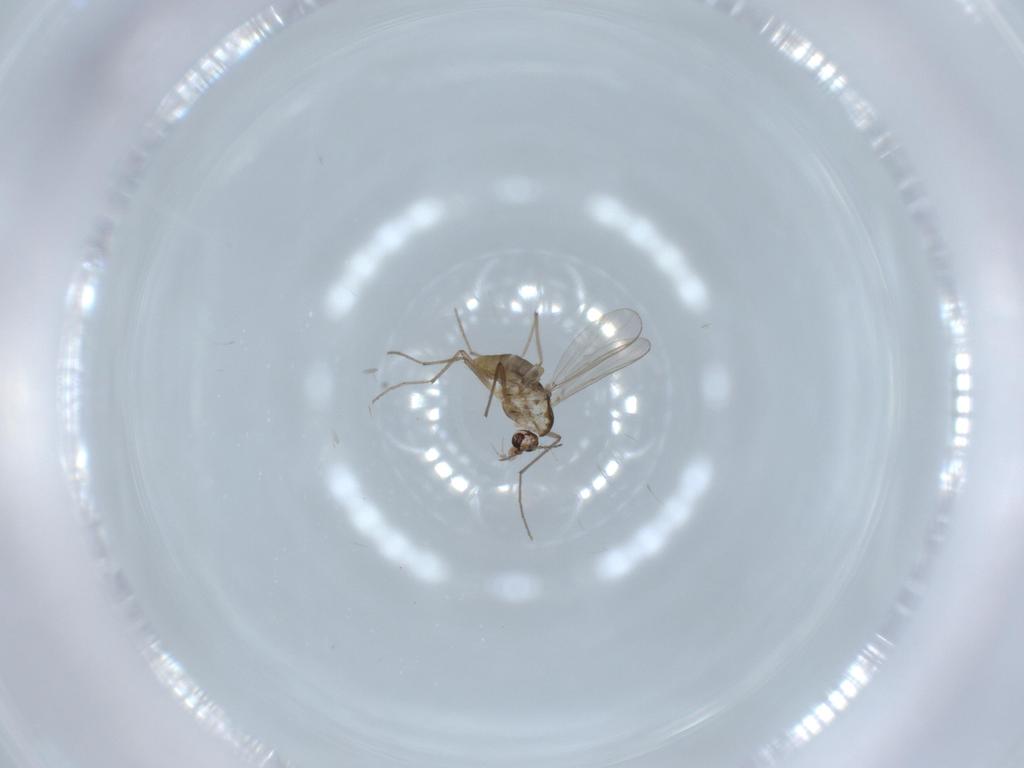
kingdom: Animalia
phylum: Arthropoda
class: Insecta
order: Diptera
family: Chironomidae
